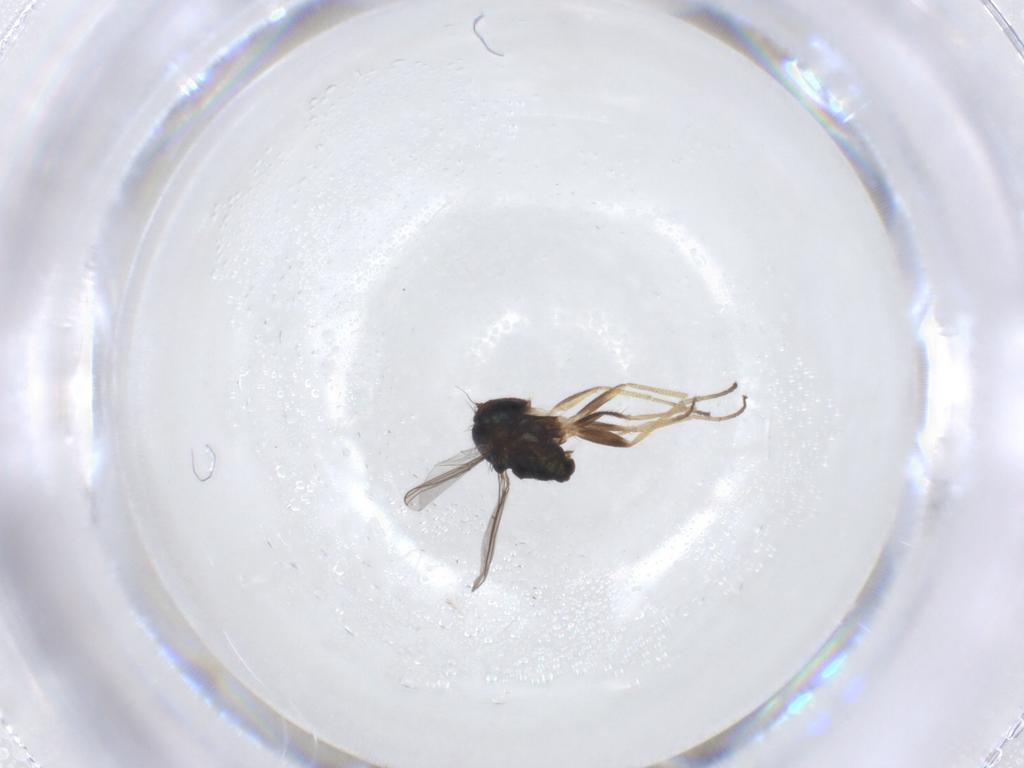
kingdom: Animalia
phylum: Arthropoda
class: Insecta
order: Diptera
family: Dolichopodidae
